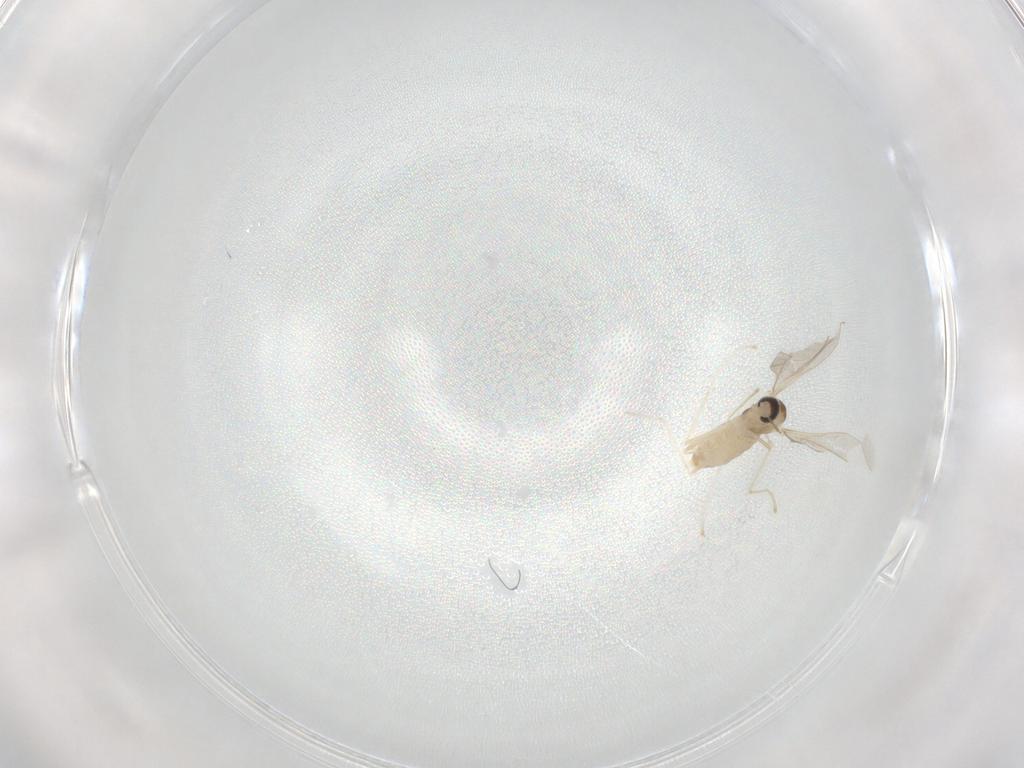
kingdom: Animalia
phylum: Arthropoda
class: Insecta
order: Diptera
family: Cecidomyiidae
